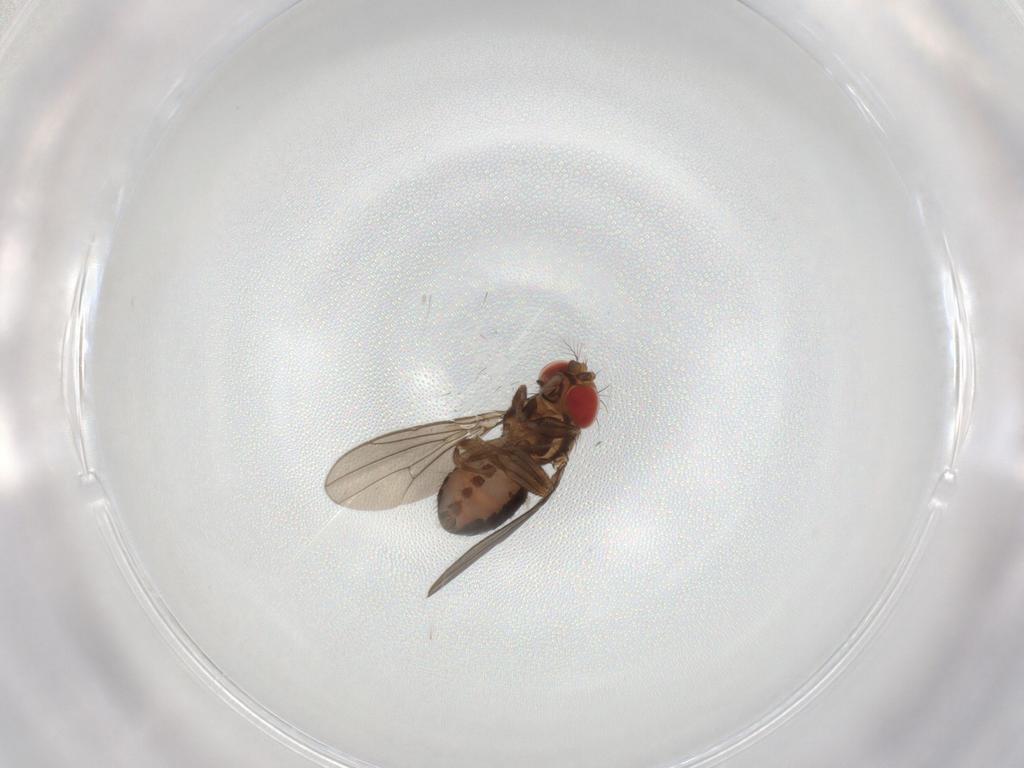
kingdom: Animalia
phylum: Arthropoda
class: Insecta
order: Diptera
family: Drosophilidae
